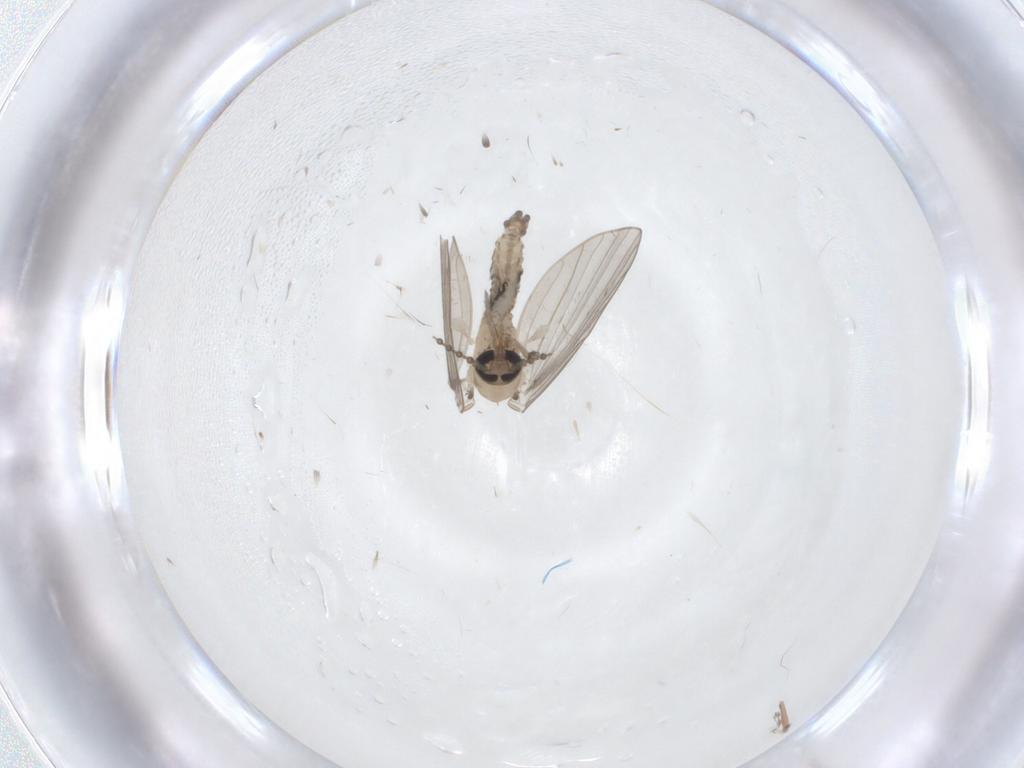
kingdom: Animalia
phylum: Arthropoda
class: Insecta
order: Diptera
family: Psychodidae
